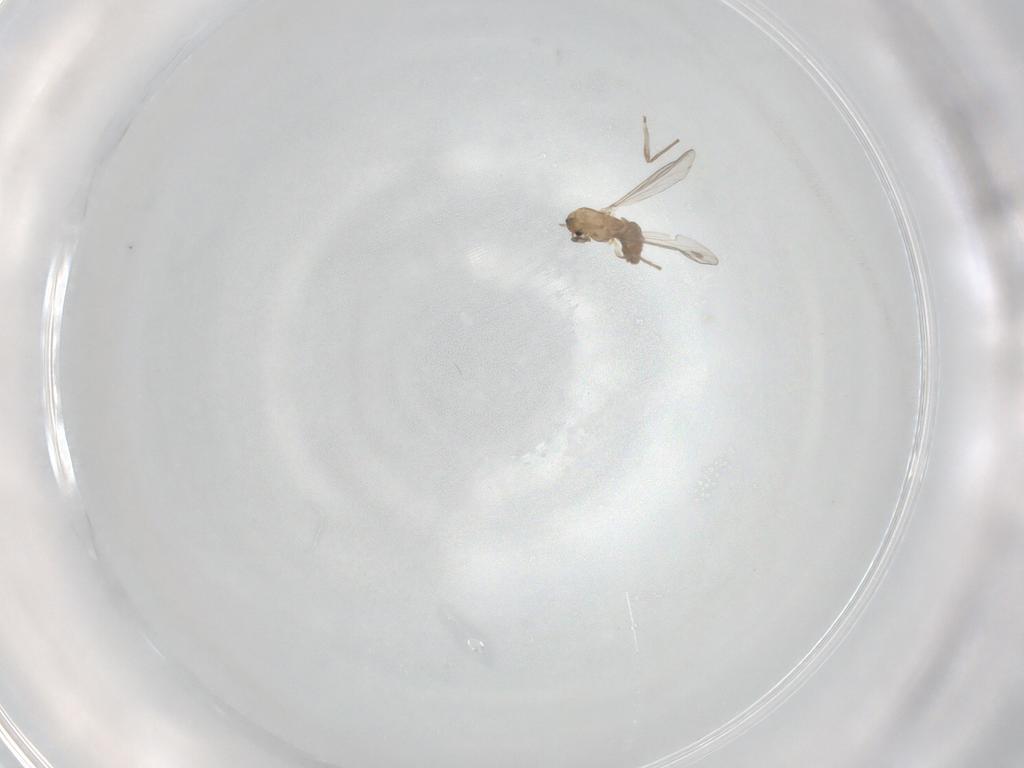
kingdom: Animalia
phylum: Arthropoda
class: Insecta
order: Diptera
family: Chironomidae
